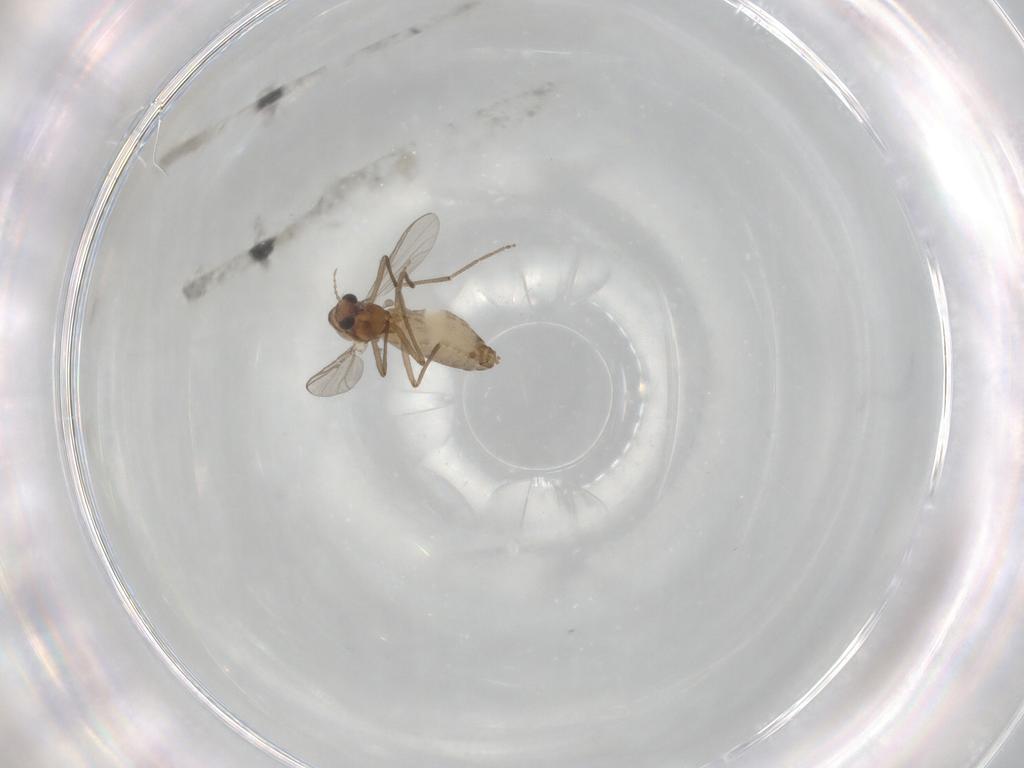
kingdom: Animalia
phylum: Arthropoda
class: Insecta
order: Diptera
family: Chironomidae
